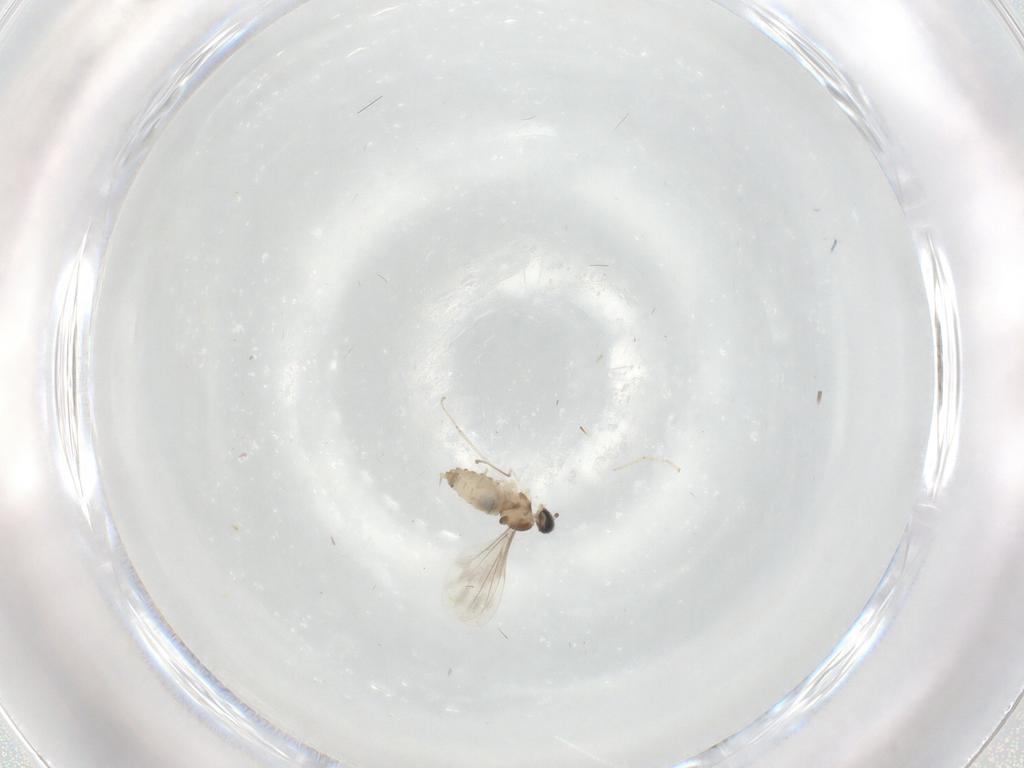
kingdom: Animalia
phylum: Arthropoda
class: Insecta
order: Diptera
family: Cecidomyiidae
